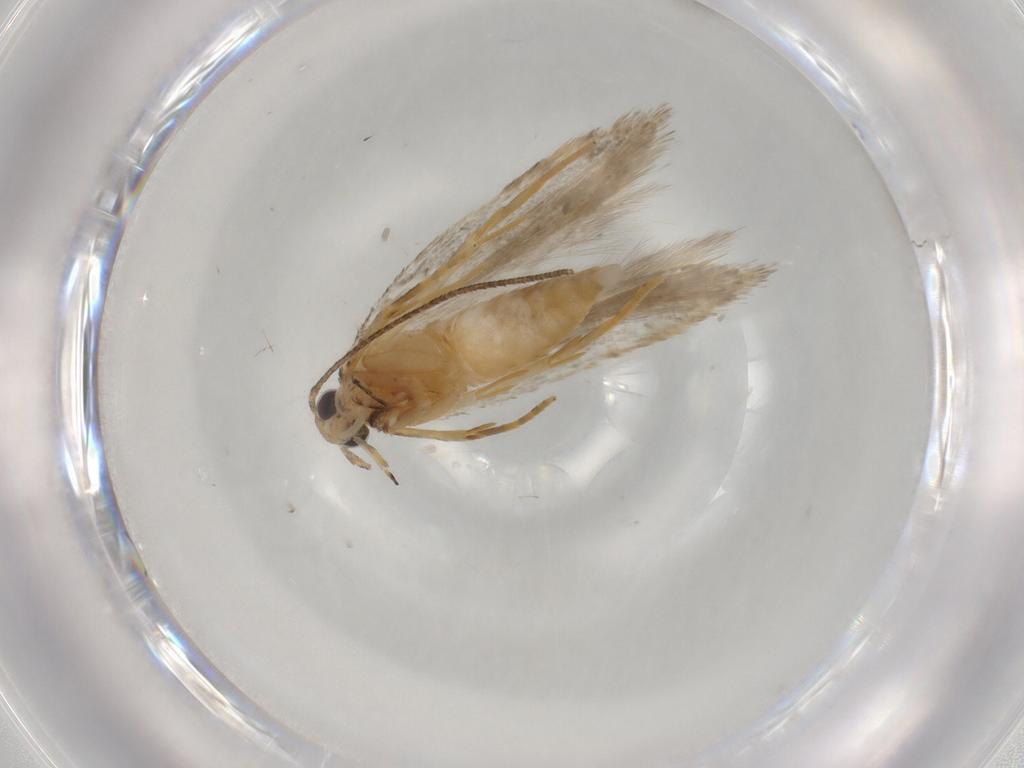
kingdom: Animalia
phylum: Arthropoda
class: Insecta
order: Lepidoptera
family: Autostichidae
